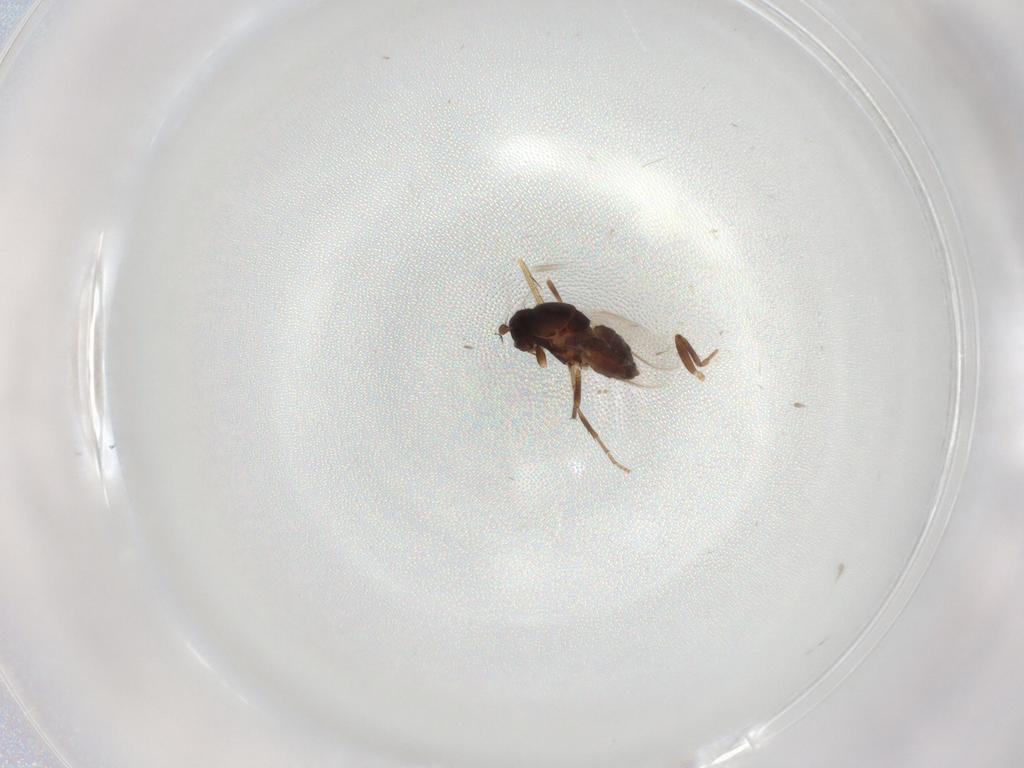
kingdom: Animalia
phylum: Arthropoda
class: Insecta
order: Diptera
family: Sphaeroceridae
